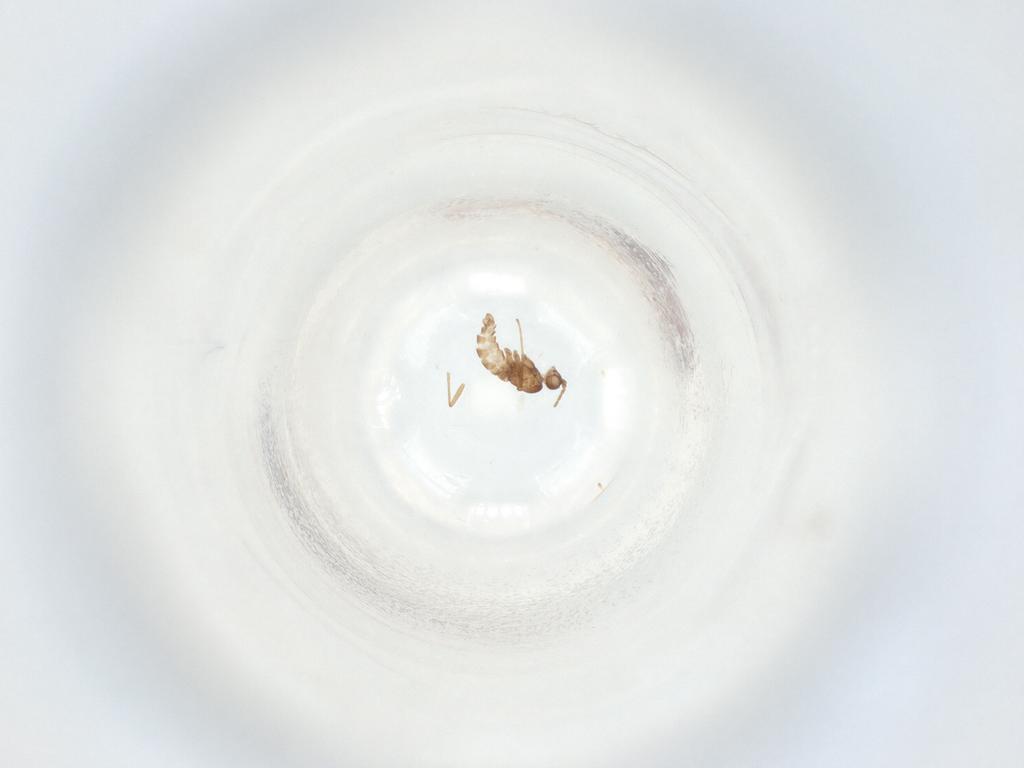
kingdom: Animalia
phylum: Arthropoda
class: Insecta
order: Diptera
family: Sciaridae
